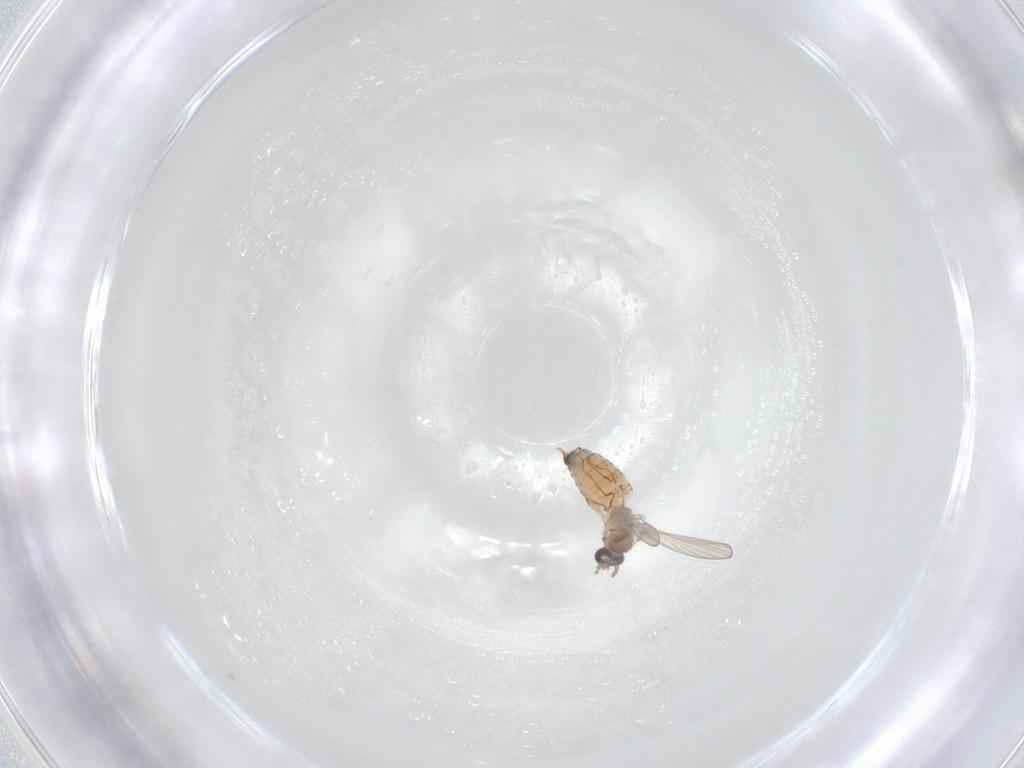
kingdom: Animalia
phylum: Arthropoda
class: Insecta
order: Diptera
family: Psychodidae
